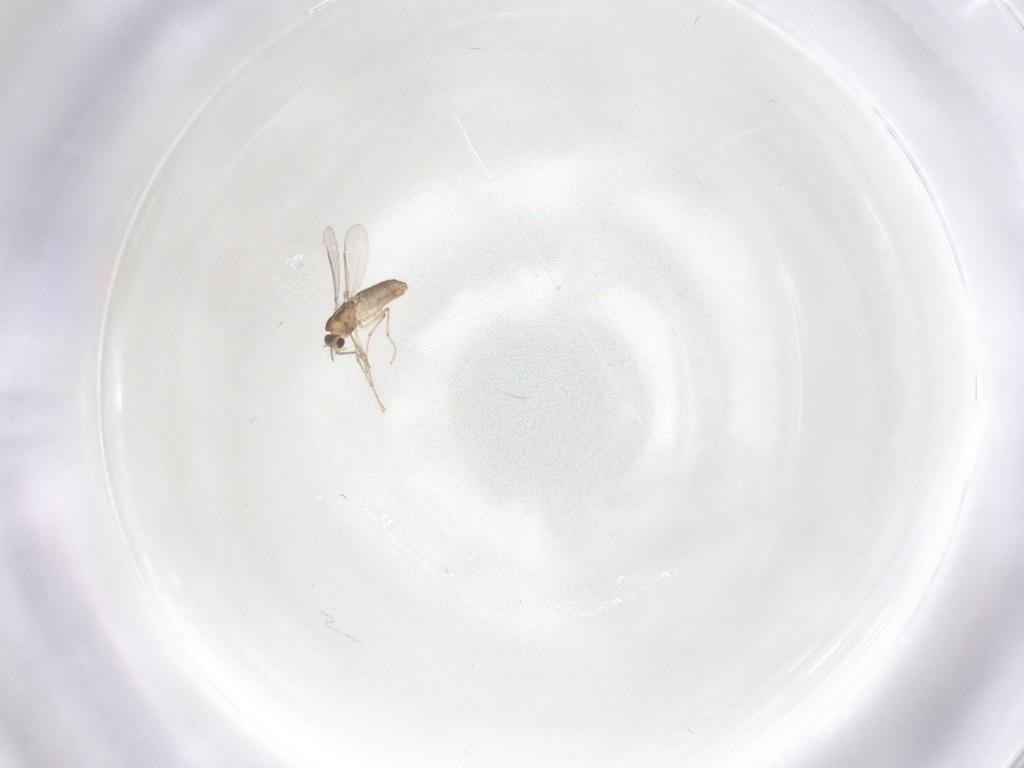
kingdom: Animalia
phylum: Arthropoda
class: Insecta
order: Diptera
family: Chironomidae
